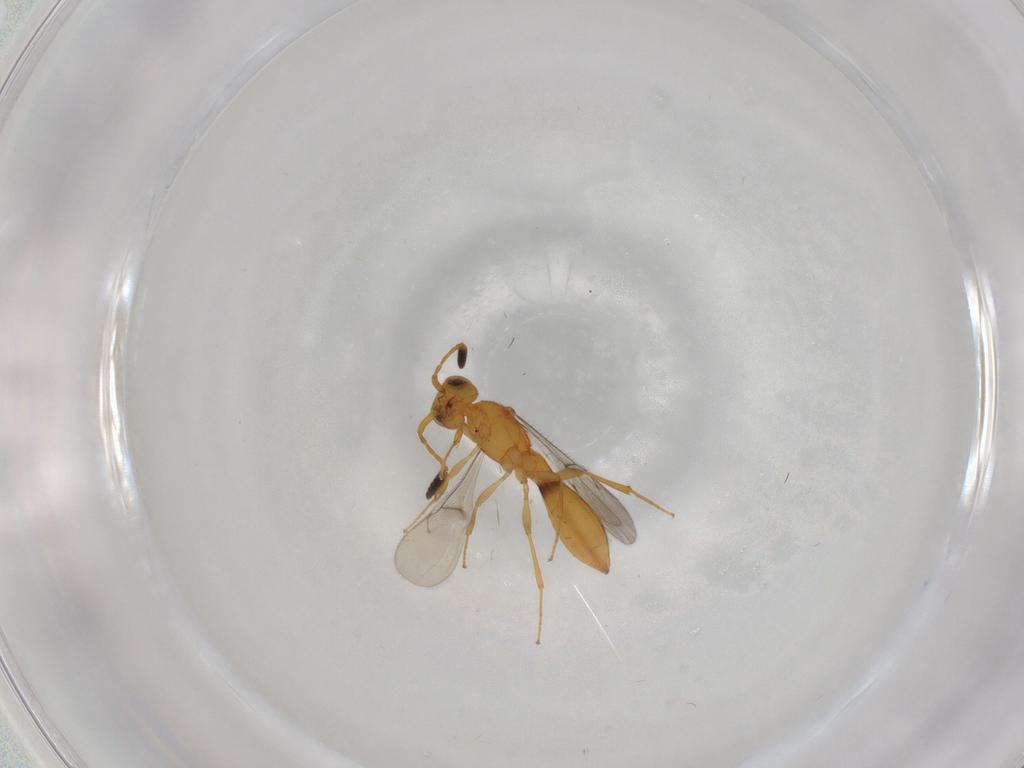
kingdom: Animalia
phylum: Arthropoda
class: Insecta
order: Hymenoptera
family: Scelionidae
